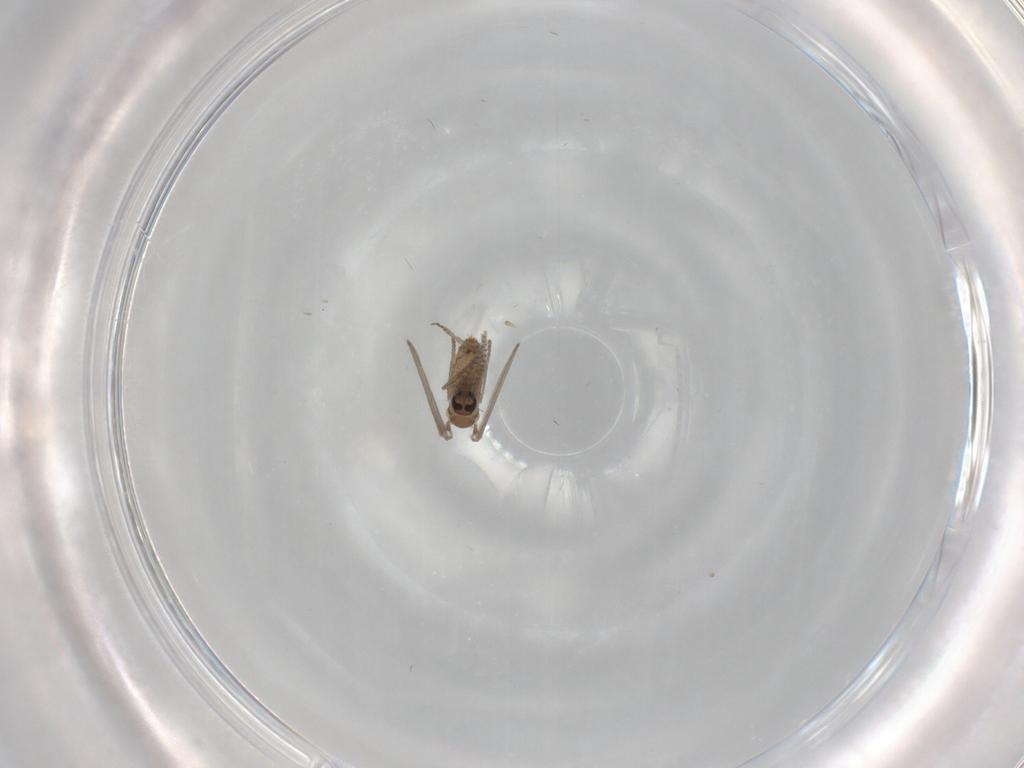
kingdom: Animalia
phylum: Arthropoda
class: Insecta
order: Diptera
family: Psychodidae
